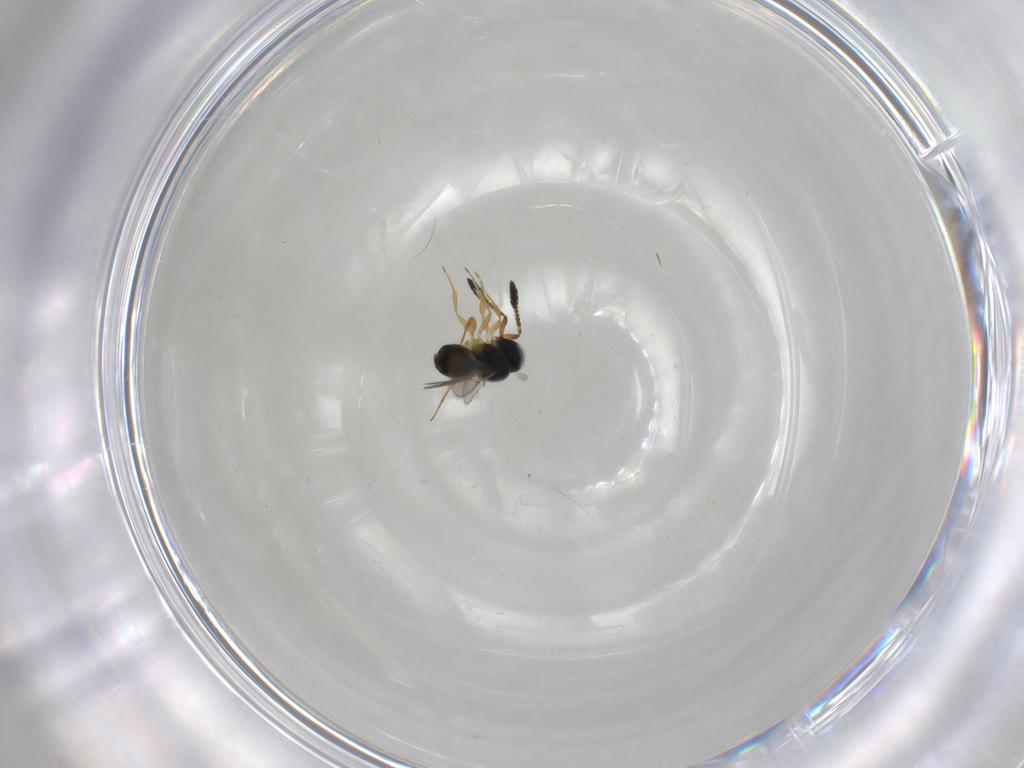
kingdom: Animalia
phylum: Arthropoda
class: Insecta
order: Hymenoptera
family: Scelionidae
